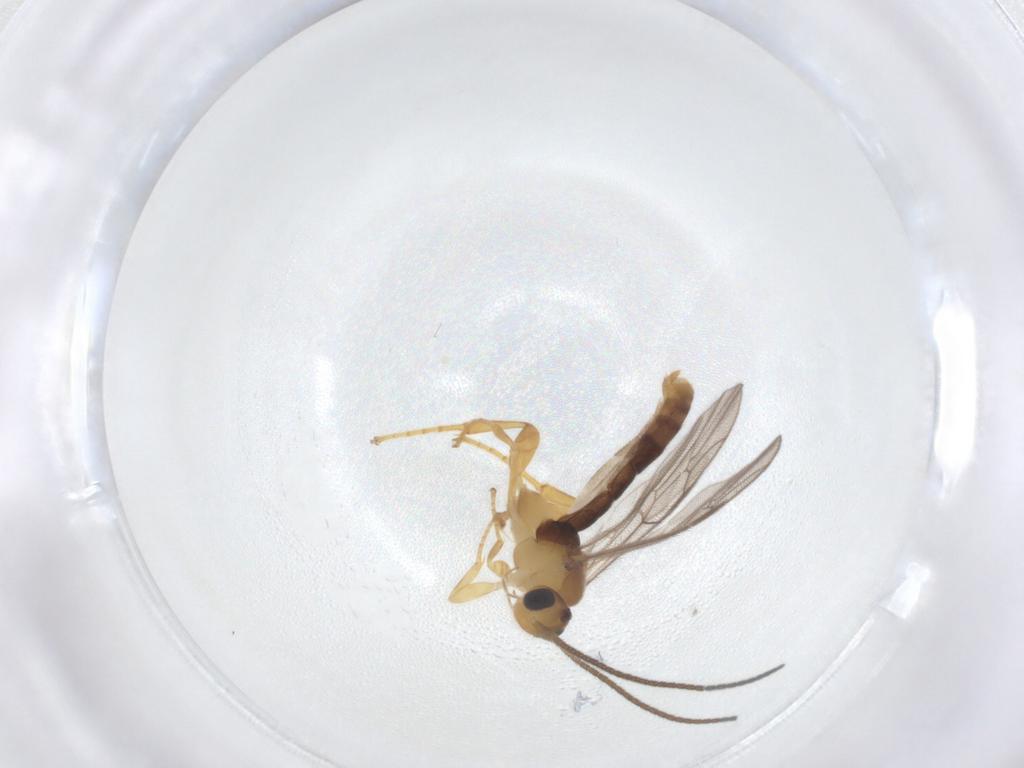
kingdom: Animalia
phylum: Arthropoda
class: Insecta
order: Hymenoptera
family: Ichneumonidae
